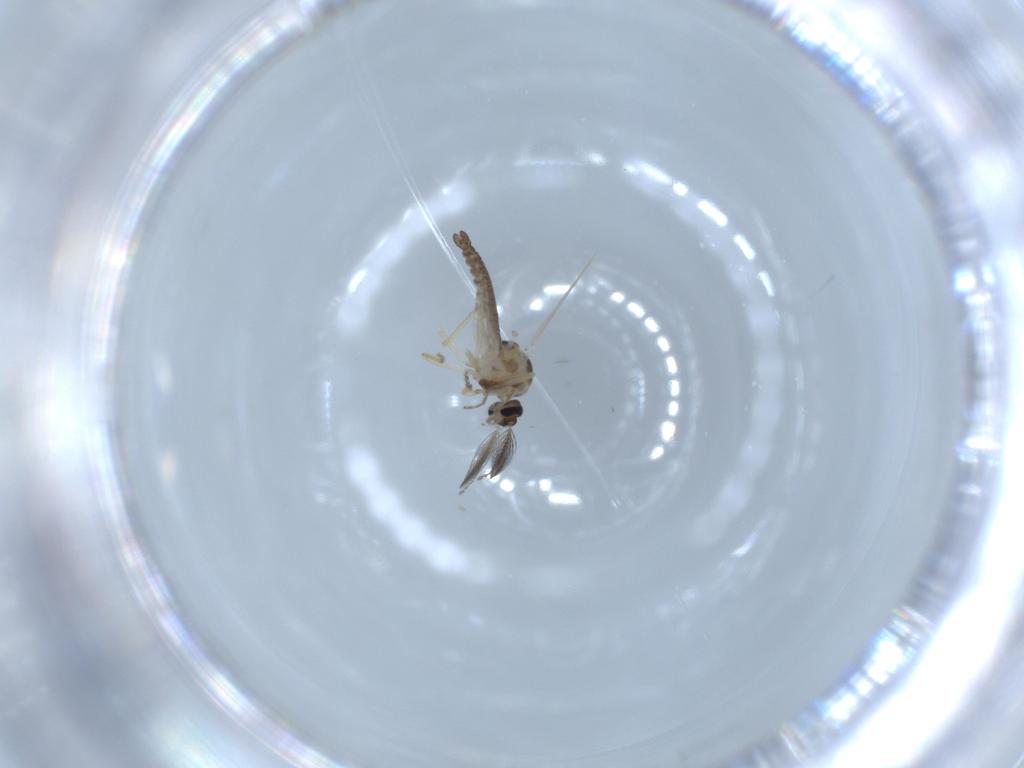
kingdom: Animalia
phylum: Arthropoda
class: Insecta
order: Diptera
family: Ceratopogonidae
